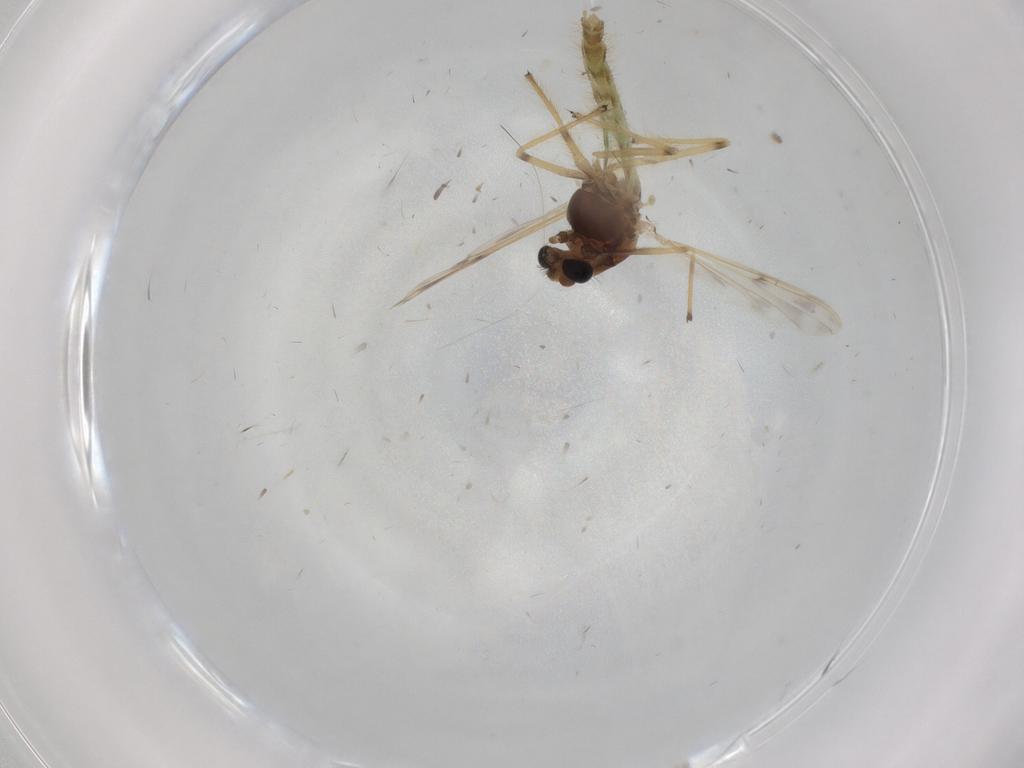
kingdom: Animalia
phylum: Arthropoda
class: Insecta
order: Diptera
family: Chironomidae
